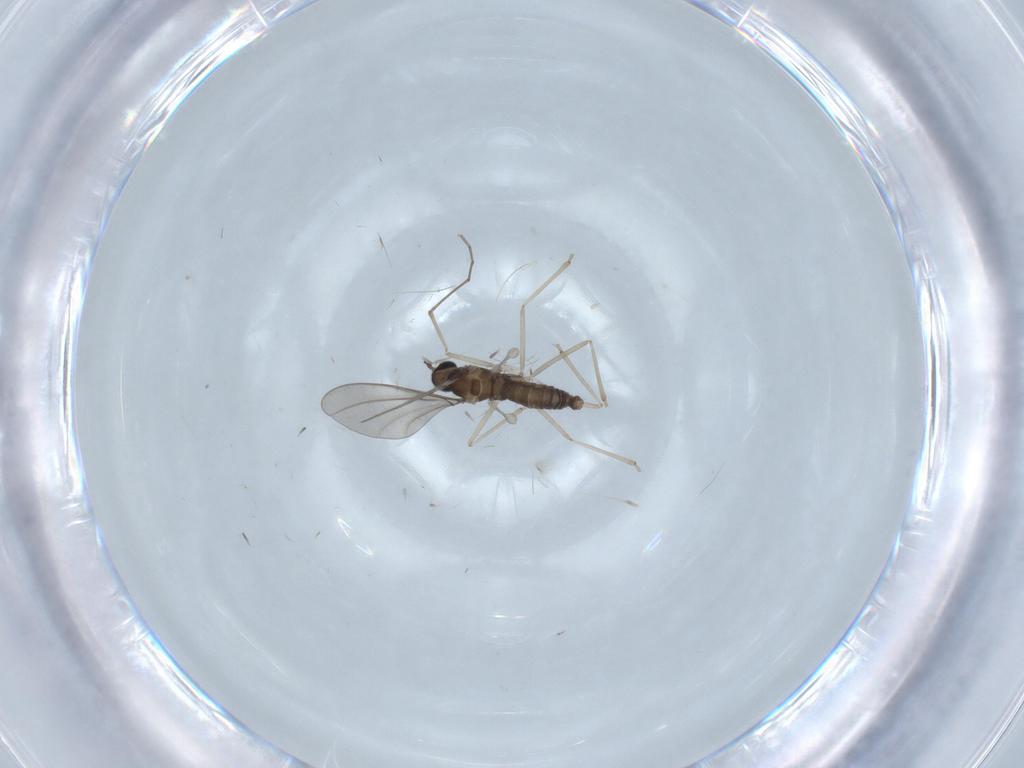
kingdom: Animalia
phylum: Arthropoda
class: Insecta
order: Diptera
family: Cecidomyiidae
